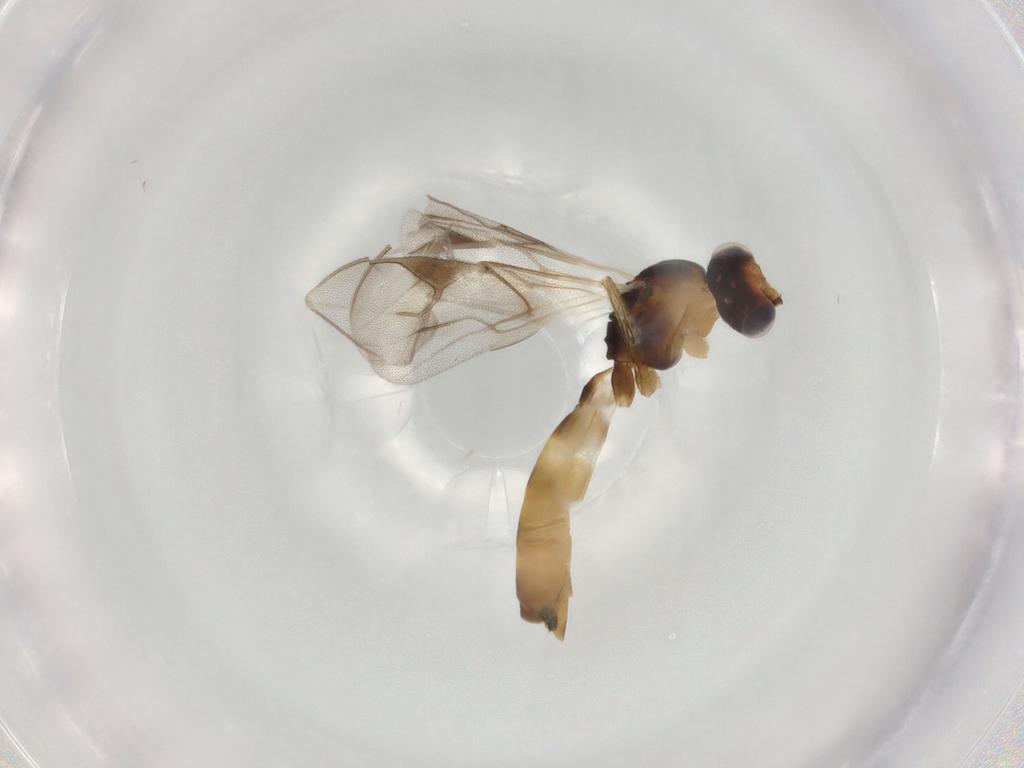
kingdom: Animalia
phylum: Arthropoda
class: Insecta
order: Hymenoptera
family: Braconidae
